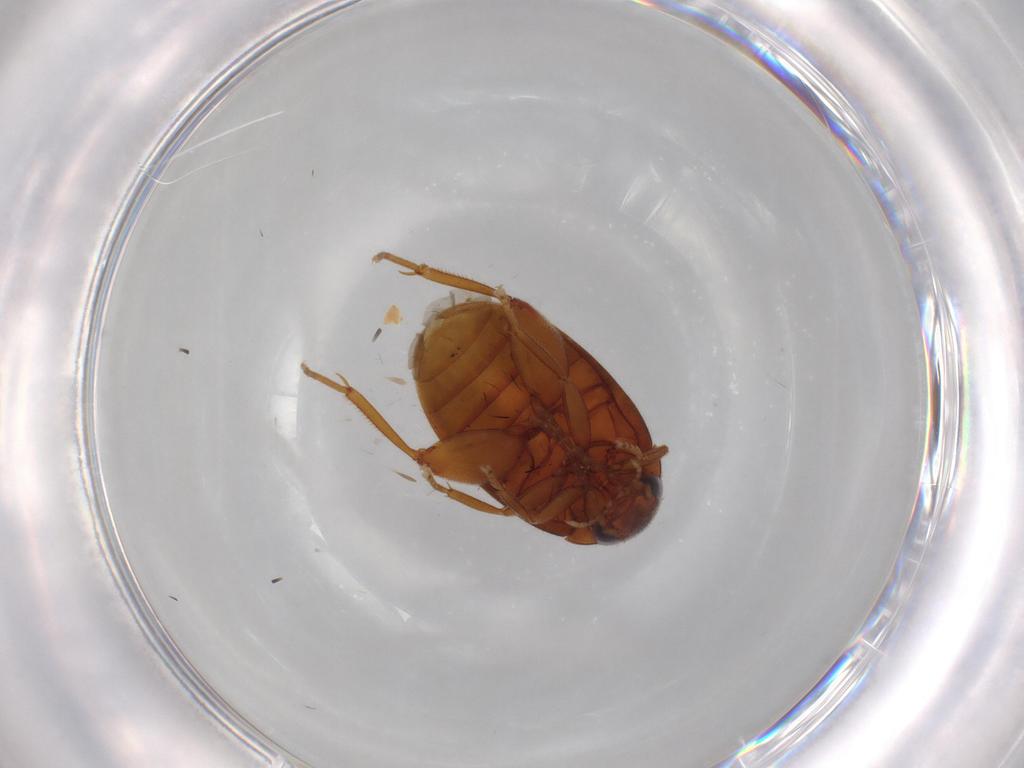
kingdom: Animalia
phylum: Arthropoda
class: Insecta
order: Coleoptera
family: Scirtidae
